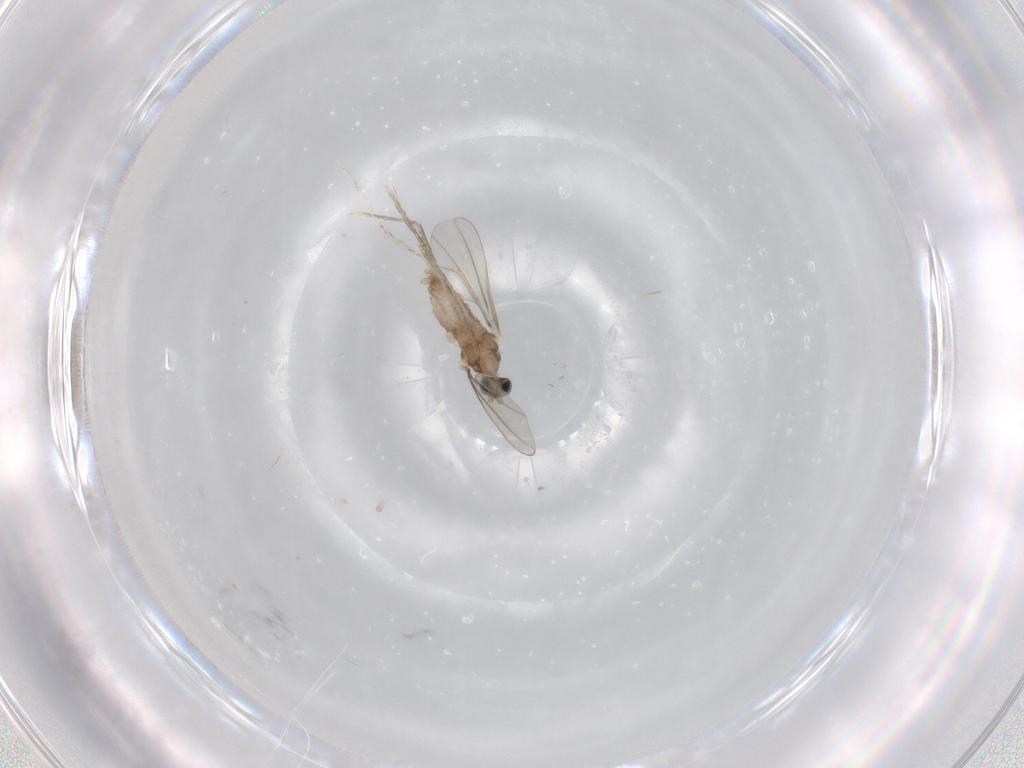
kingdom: Animalia
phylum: Arthropoda
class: Insecta
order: Diptera
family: Cecidomyiidae
